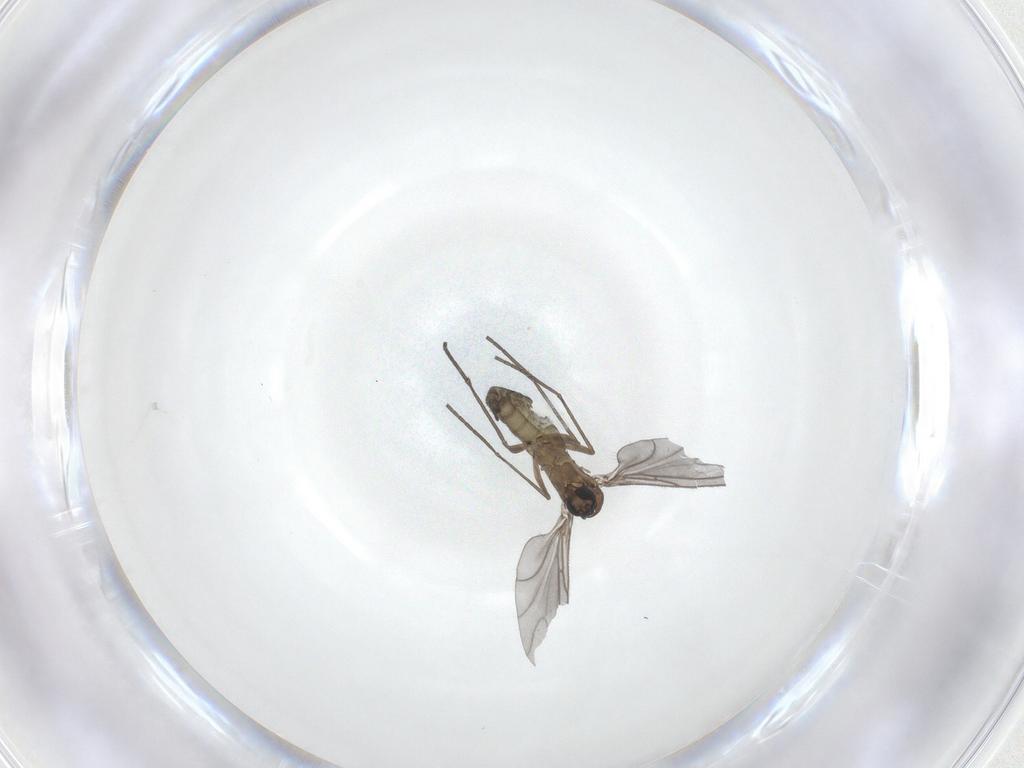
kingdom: Animalia
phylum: Arthropoda
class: Insecta
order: Diptera
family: Sciaridae
